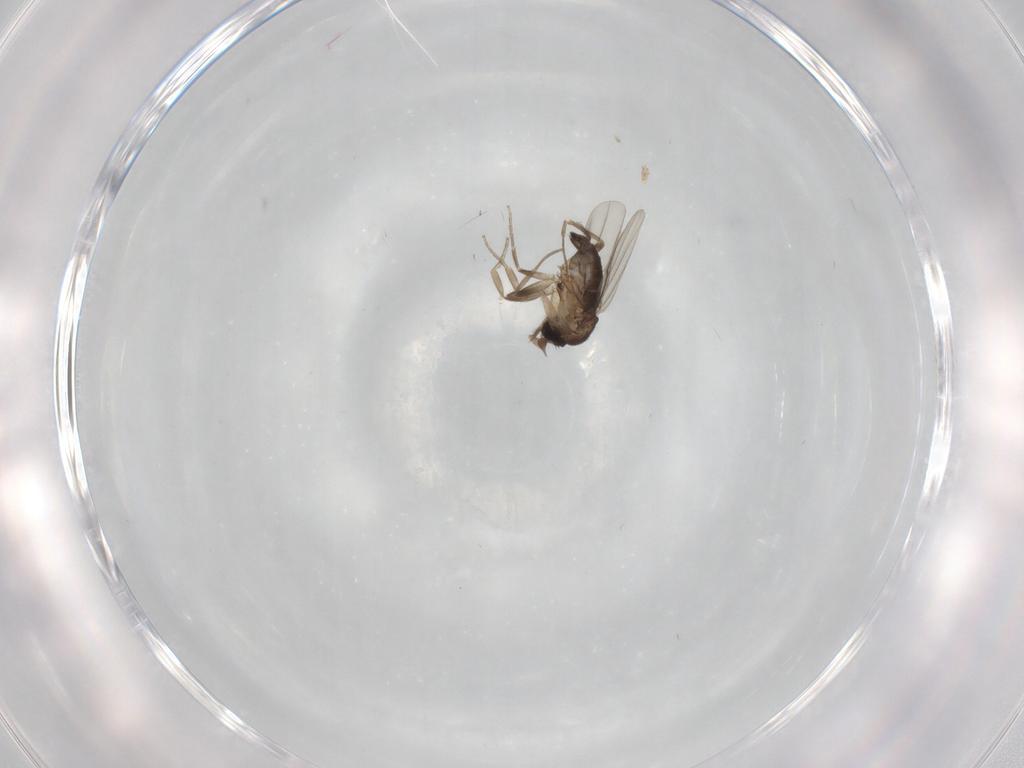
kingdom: Animalia
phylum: Arthropoda
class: Insecta
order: Diptera
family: Phoridae
